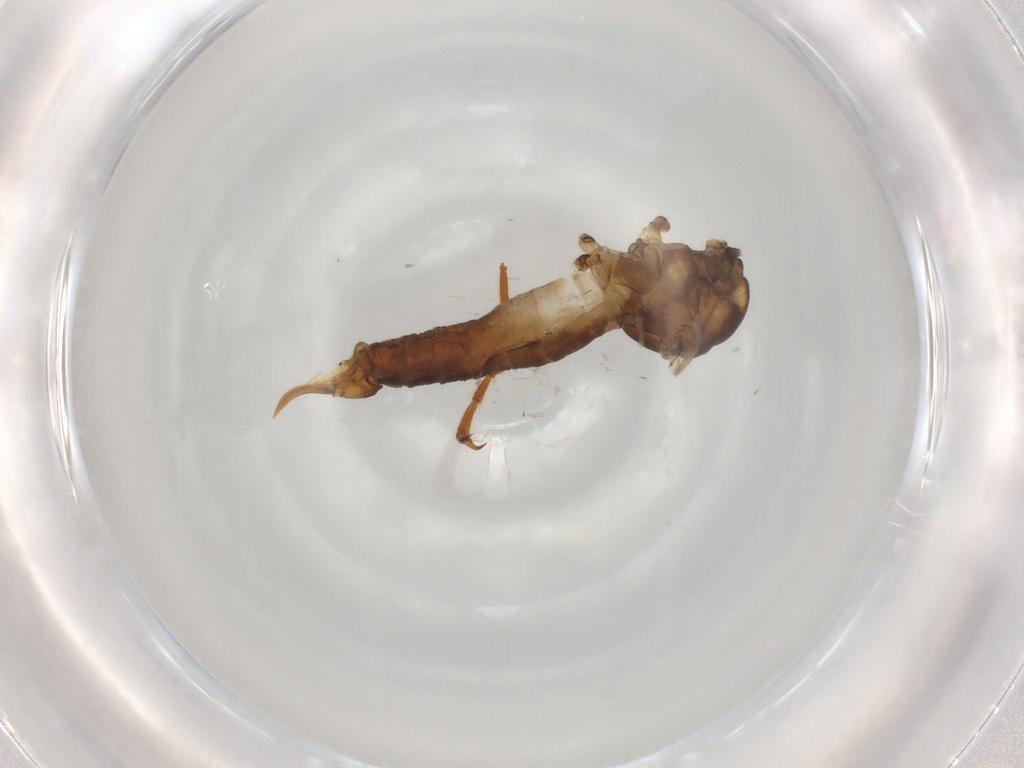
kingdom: Animalia
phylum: Arthropoda
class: Insecta
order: Diptera
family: Limoniidae
